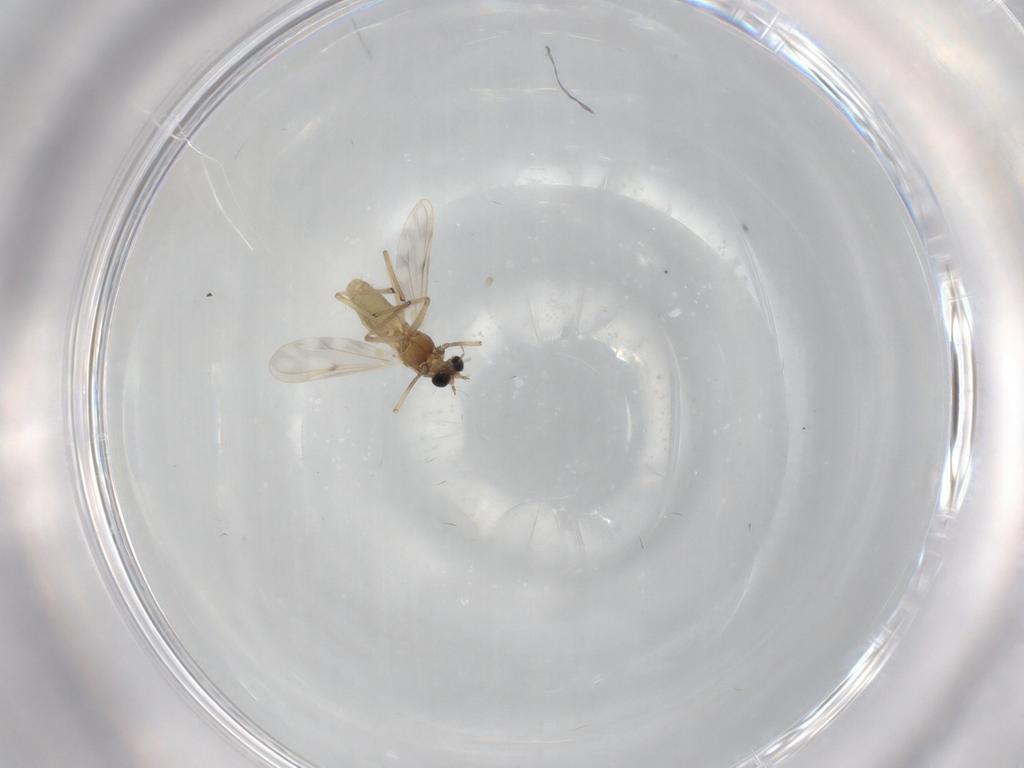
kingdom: Animalia
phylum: Arthropoda
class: Insecta
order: Diptera
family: Chironomidae
